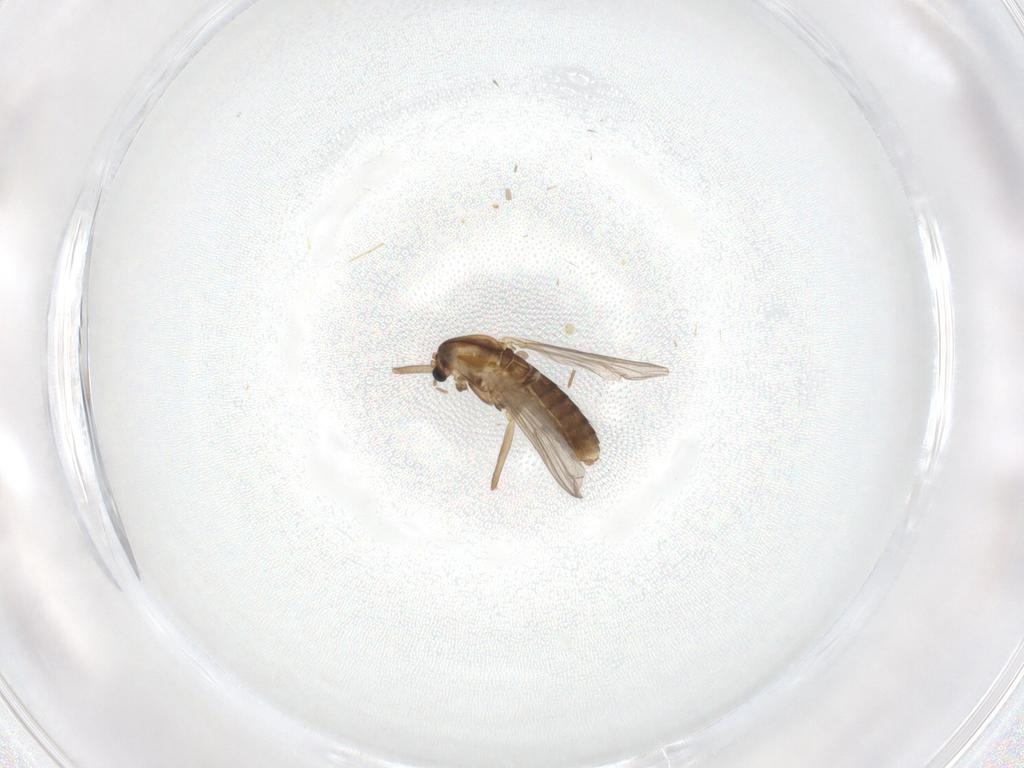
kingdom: Animalia
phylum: Arthropoda
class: Insecta
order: Diptera
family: Chironomidae
